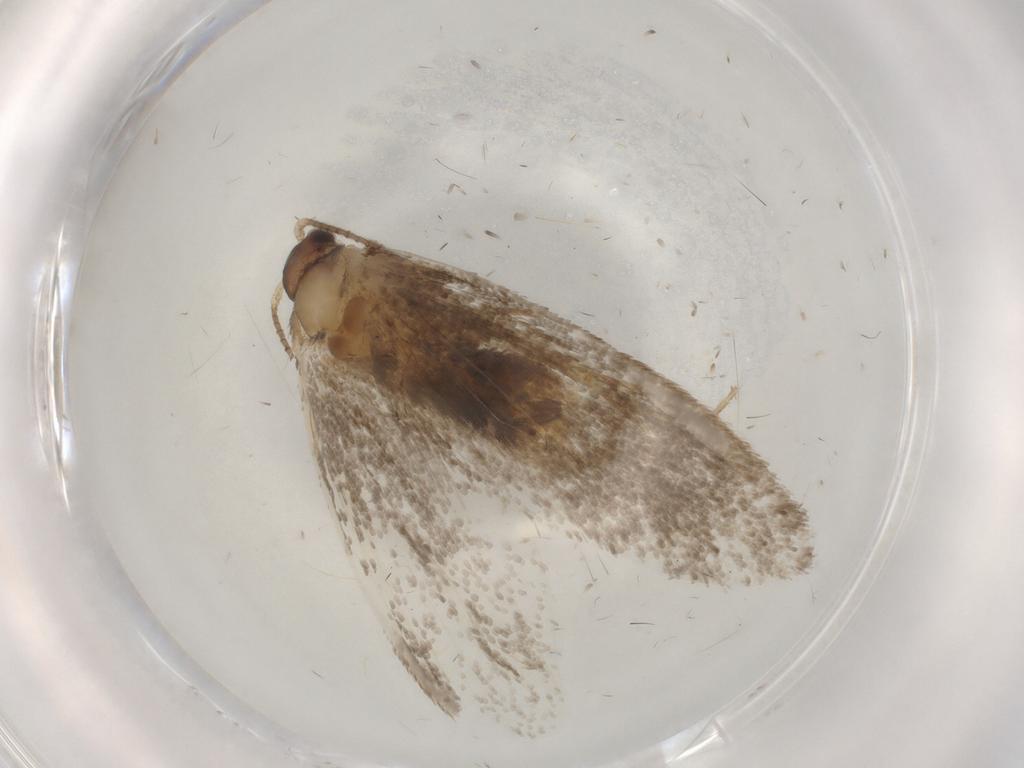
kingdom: Animalia
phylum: Arthropoda
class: Insecta
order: Lepidoptera
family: Dryadaulidae
